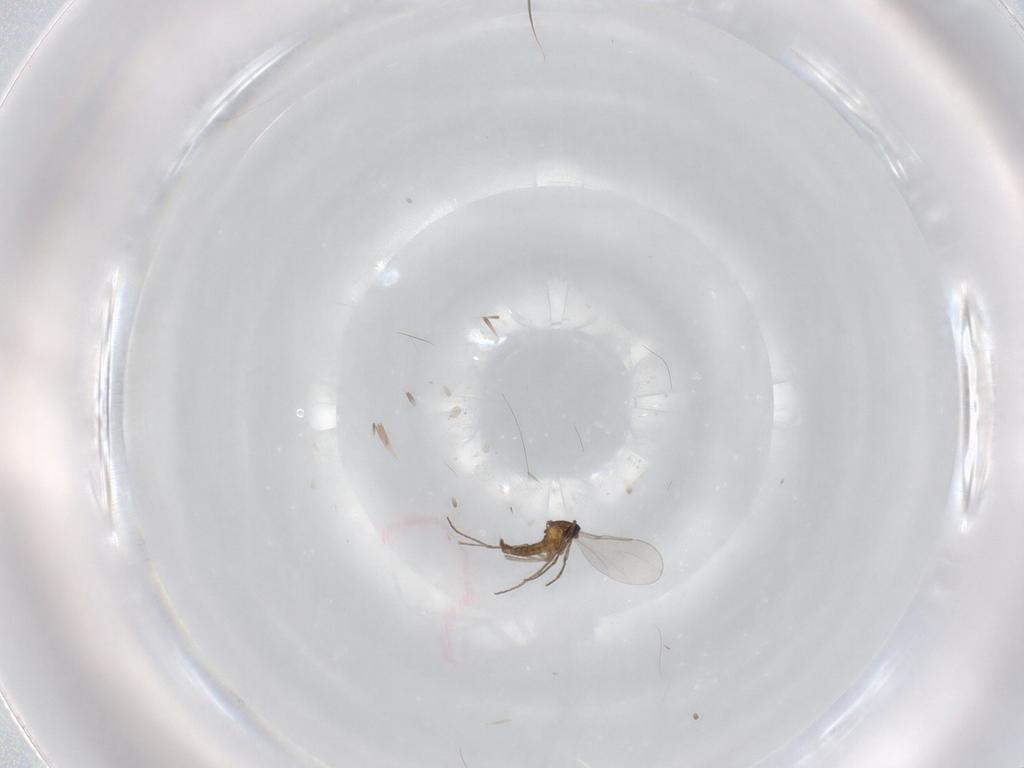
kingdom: Animalia
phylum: Arthropoda
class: Insecta
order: Diptera
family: Cecidomyiidae
